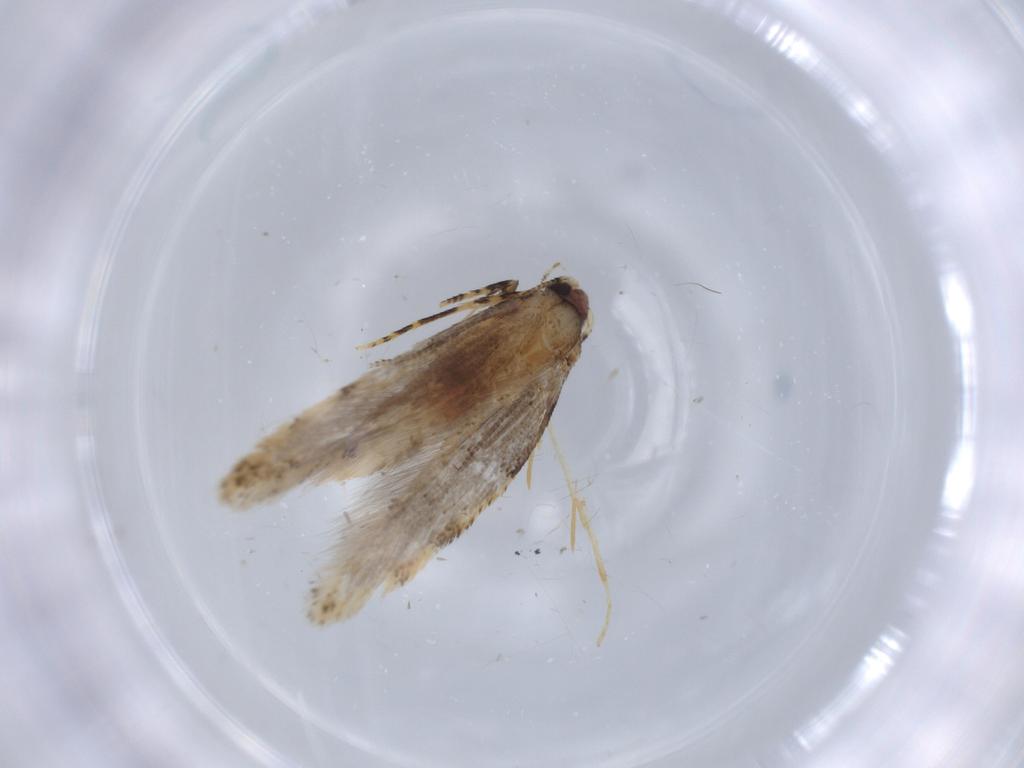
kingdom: Animalia
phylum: Arthropoda
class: Insecta
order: Lepidoptera
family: Tineidae
